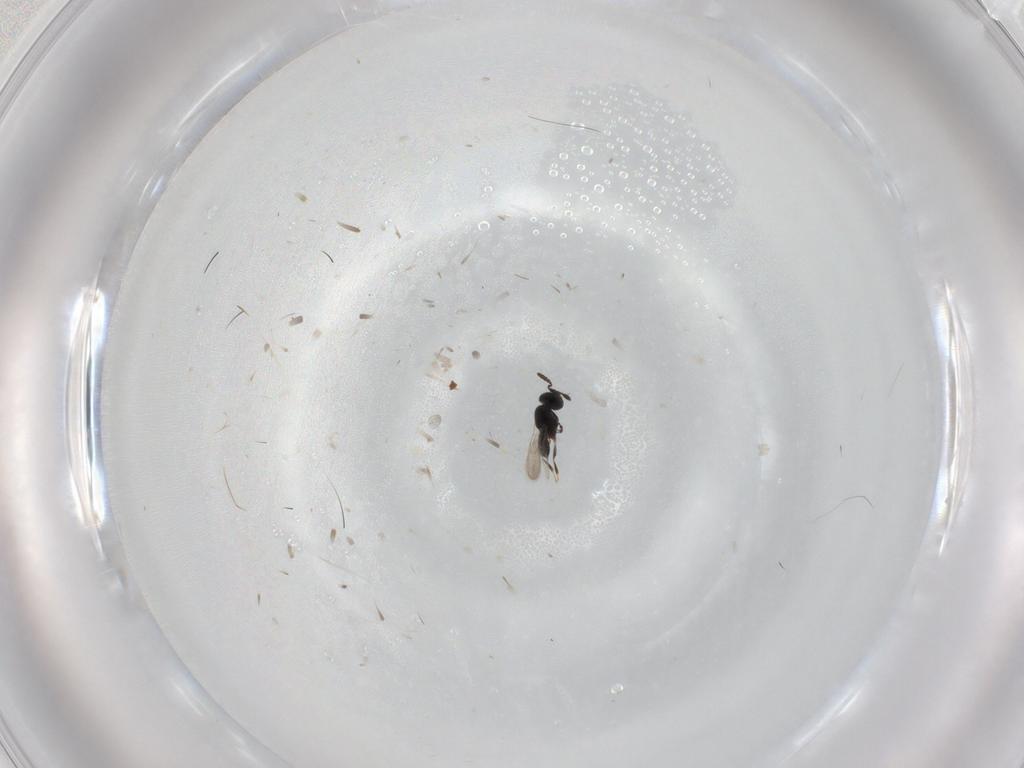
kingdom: Animalia
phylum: Arthropoda
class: Insecta
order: Hymenoptera
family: Scelionidae
